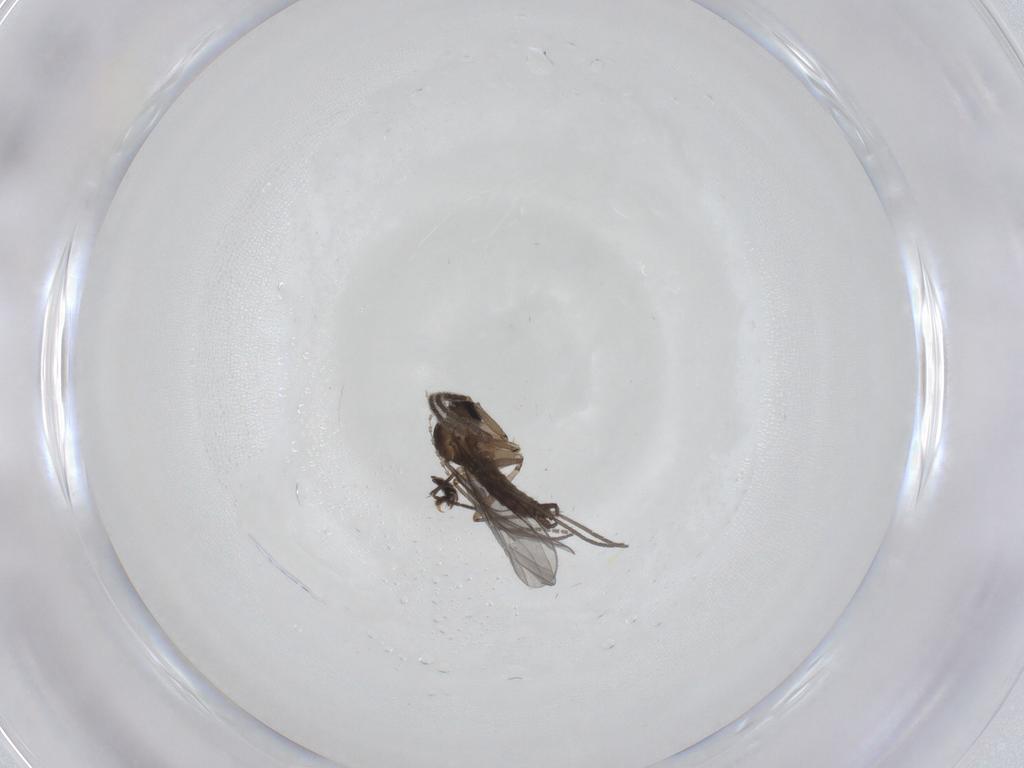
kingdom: Animalia
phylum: Arthropoda
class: Insecta
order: Diptera
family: Sciaridae
